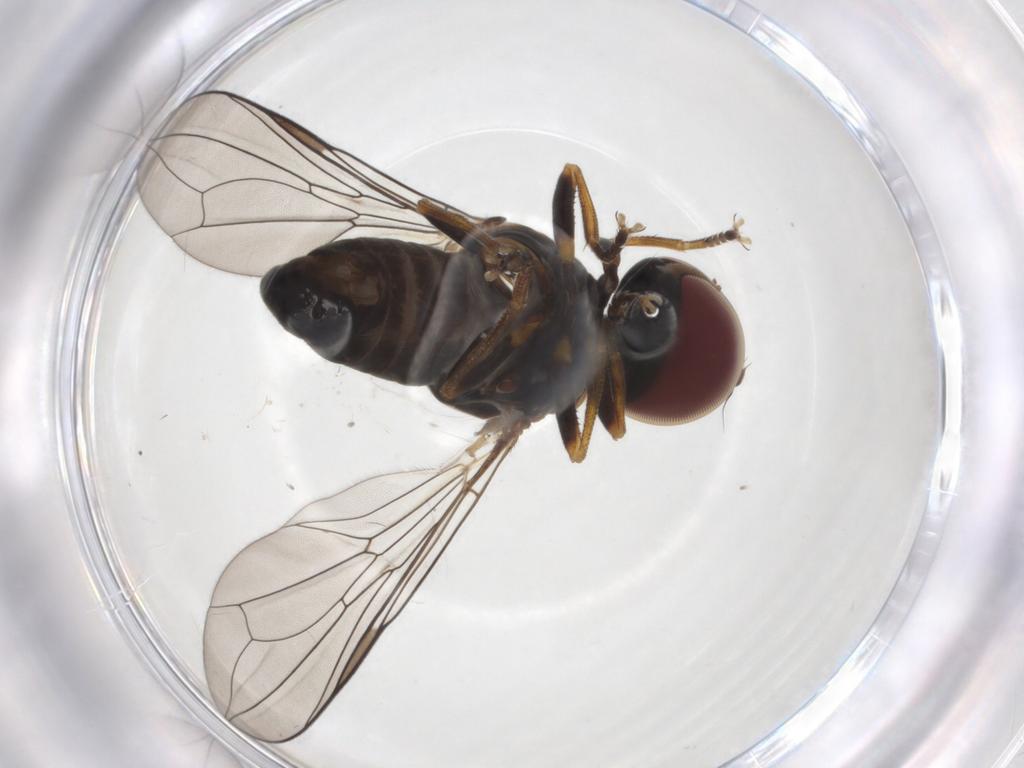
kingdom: Animalia
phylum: Arthropoda
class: Insecta
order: Diptera
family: Pipunculidae
